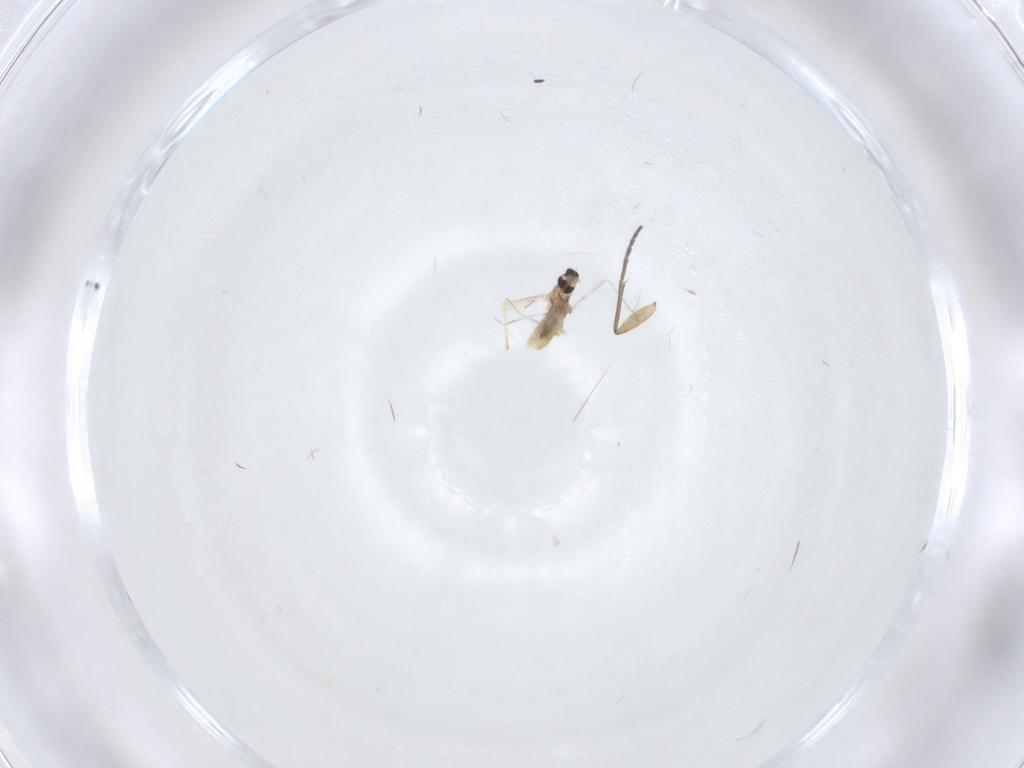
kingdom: Animalia
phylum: Arthropoda
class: Insecta
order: Diptera
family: Cecidomyiidae
